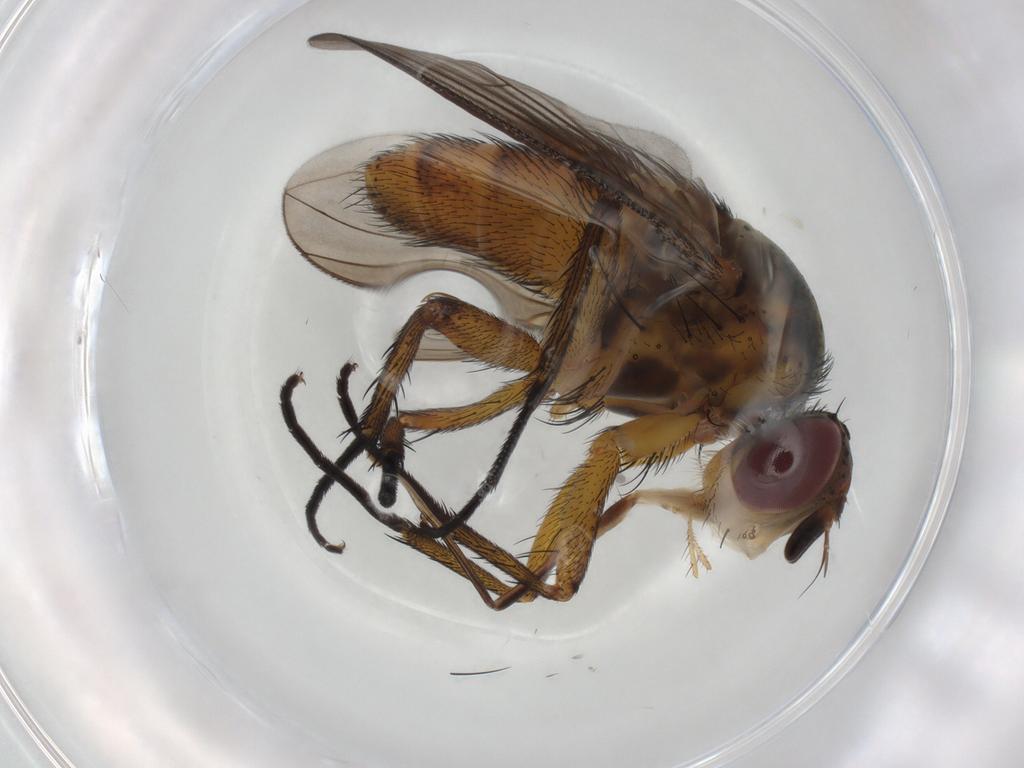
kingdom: Animalia
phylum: Arthropoda
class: Insecta
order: Diptera
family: Tachinidae
